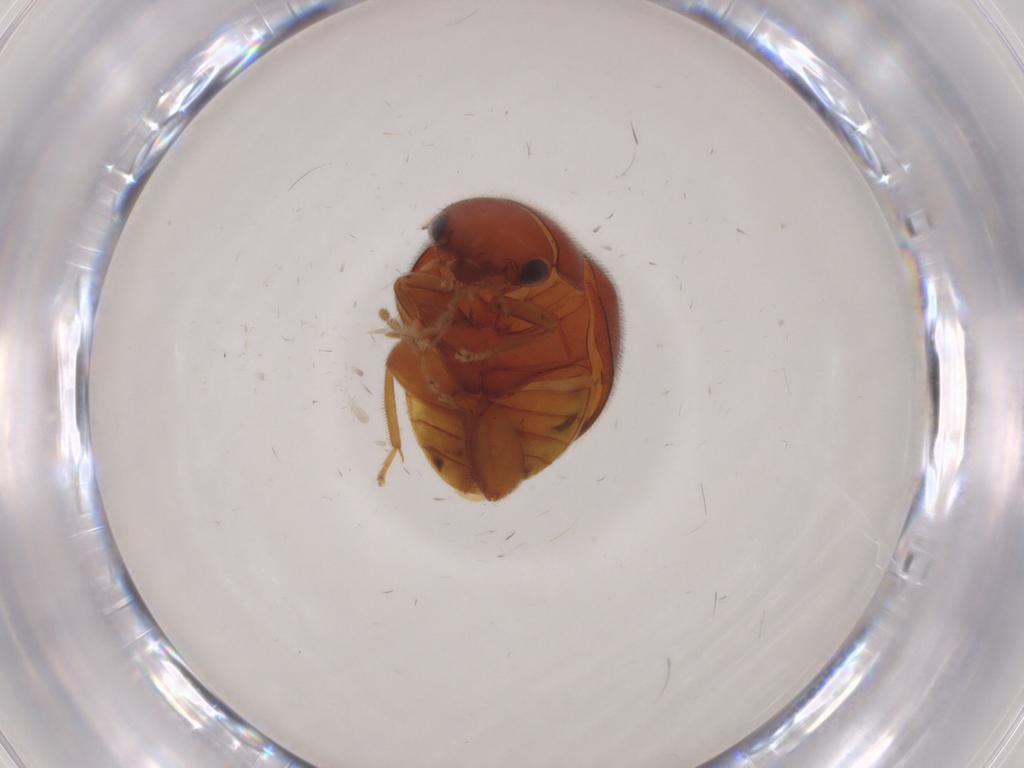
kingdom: Animalia
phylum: Arthropoda
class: Insecta
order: Coleoptera
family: Scirtidae
